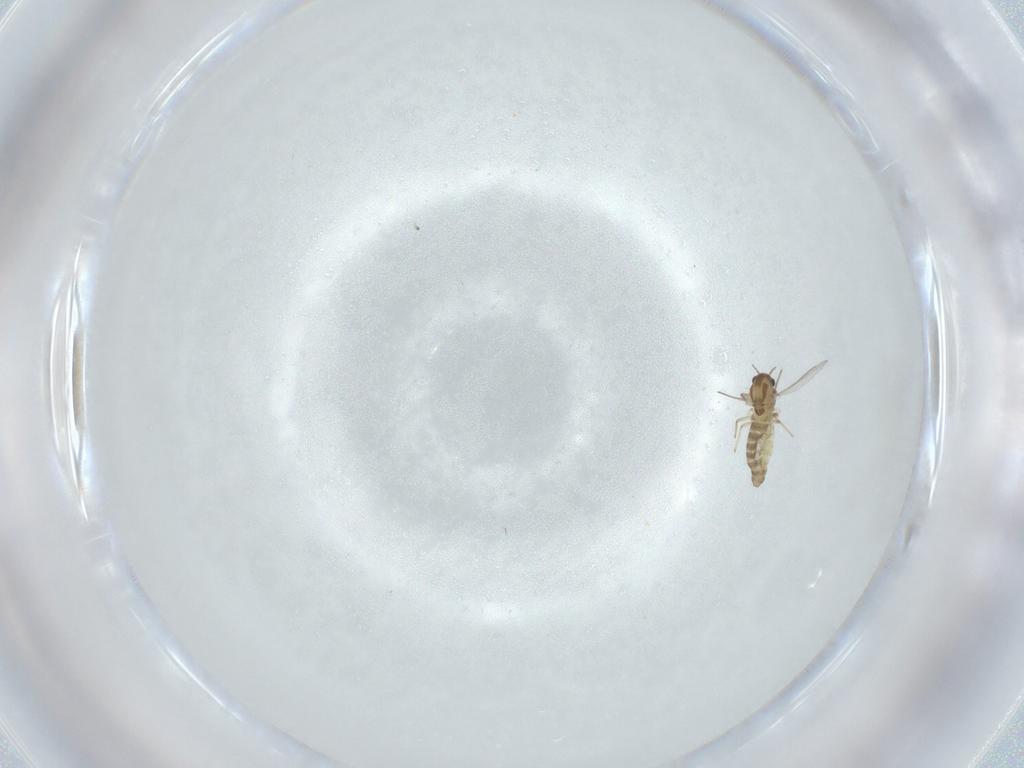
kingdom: Animalia
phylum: Arthropoda
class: Insecta
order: Diptera
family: Chironomidae
